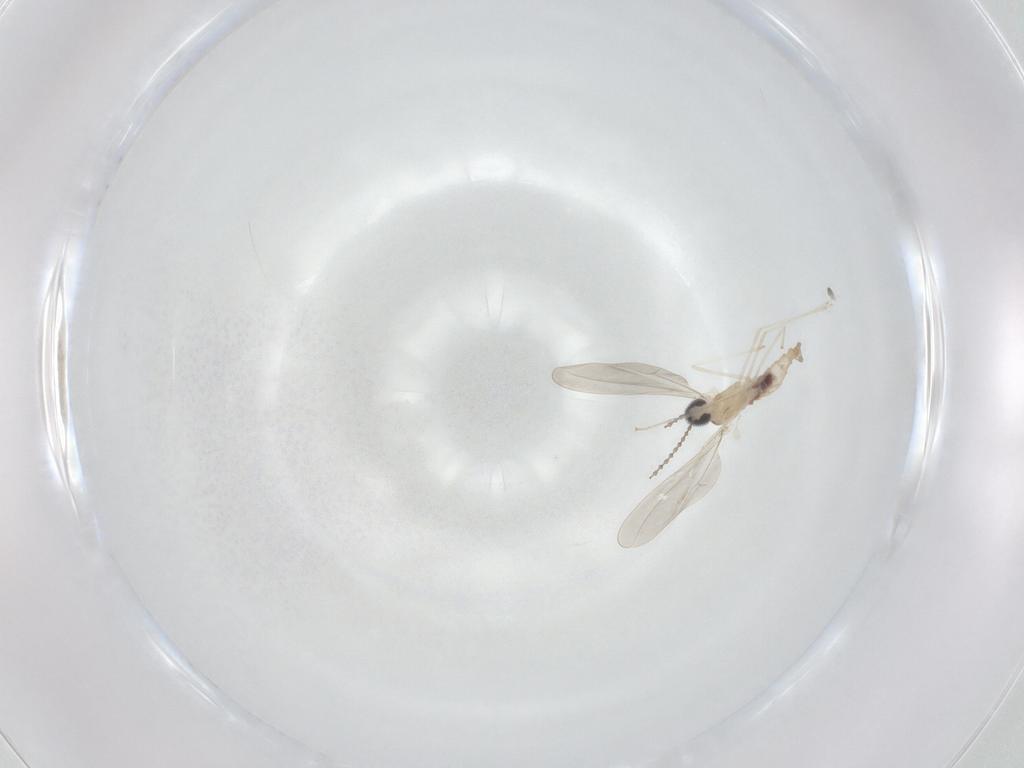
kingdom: Animalia
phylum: Arthropoda
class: Insecta
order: Diptera
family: Cecidomyiidae
